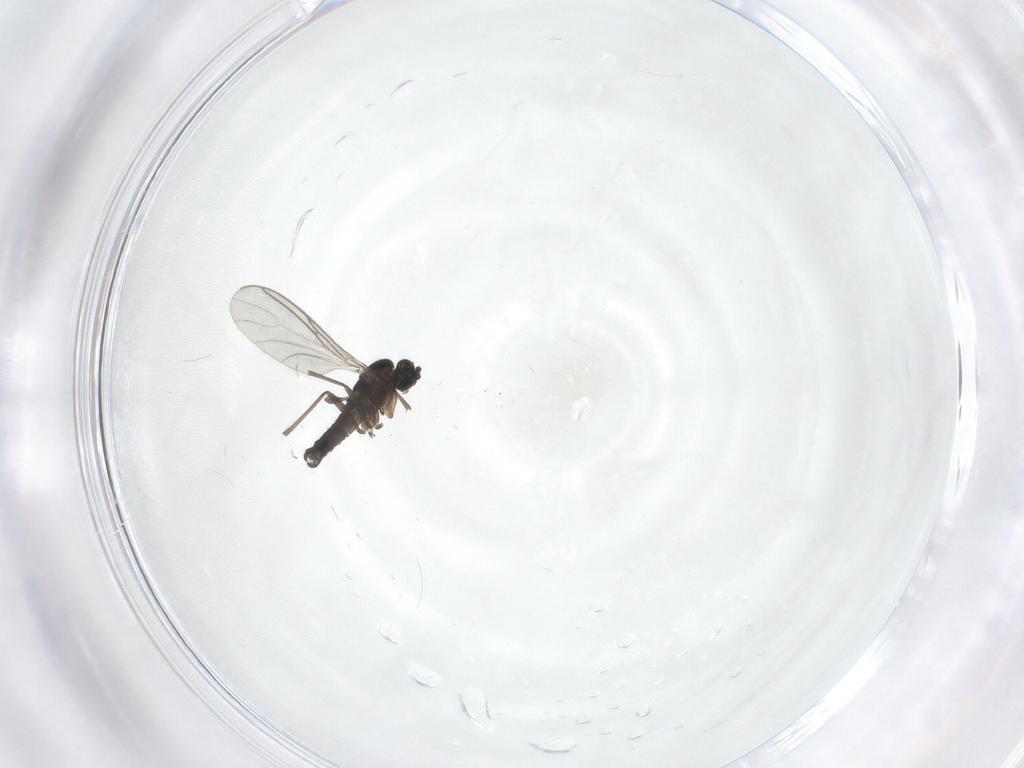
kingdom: Animalia
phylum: Arthropoda
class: Insecta
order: Diptera
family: Sciaridae
